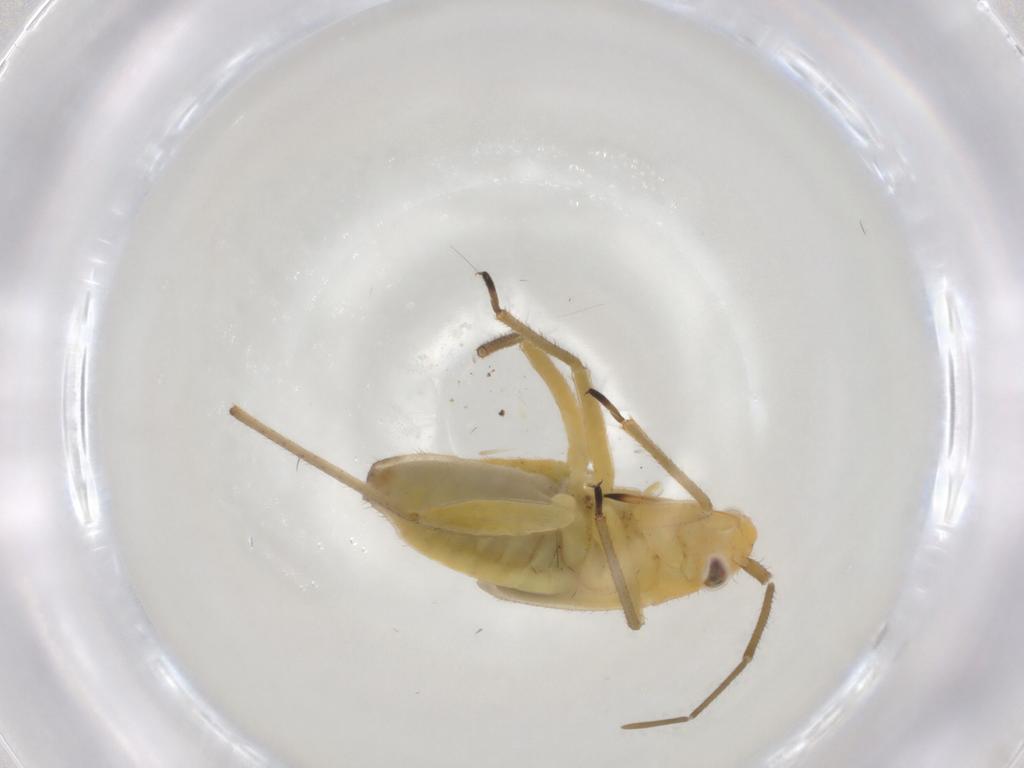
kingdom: Animalia
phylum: Arthropoda
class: Insecta
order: Hemiptera
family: Miridae
